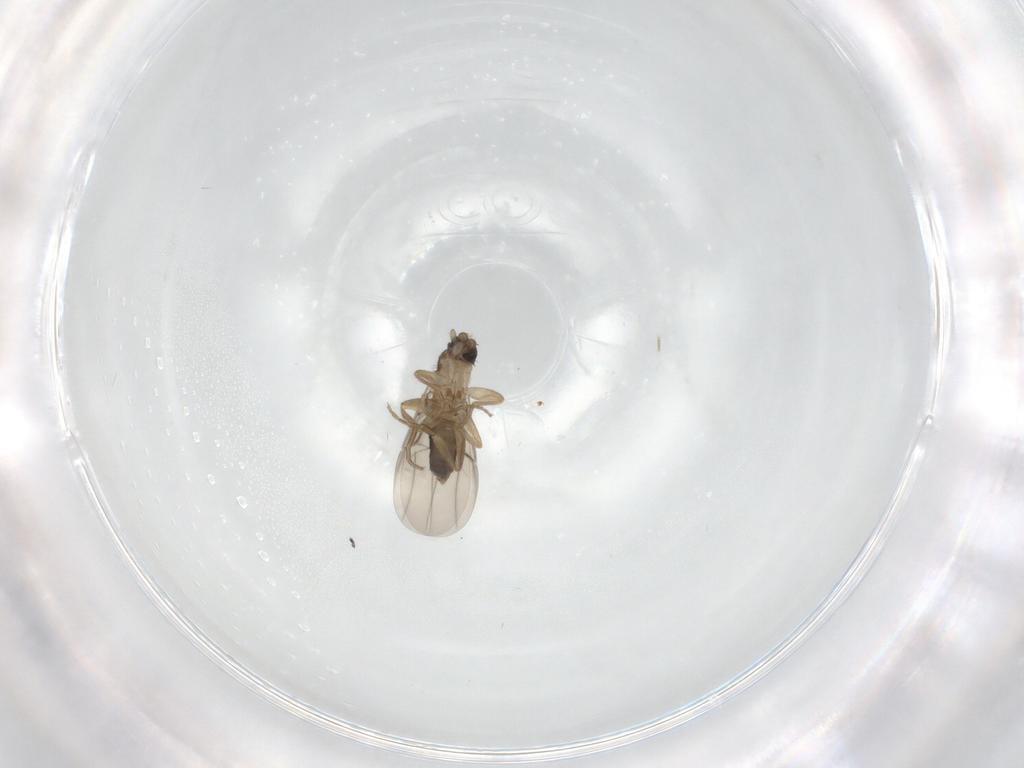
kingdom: Animalia
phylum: Arthropoda
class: Insecta
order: Diptera
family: Phoridae
